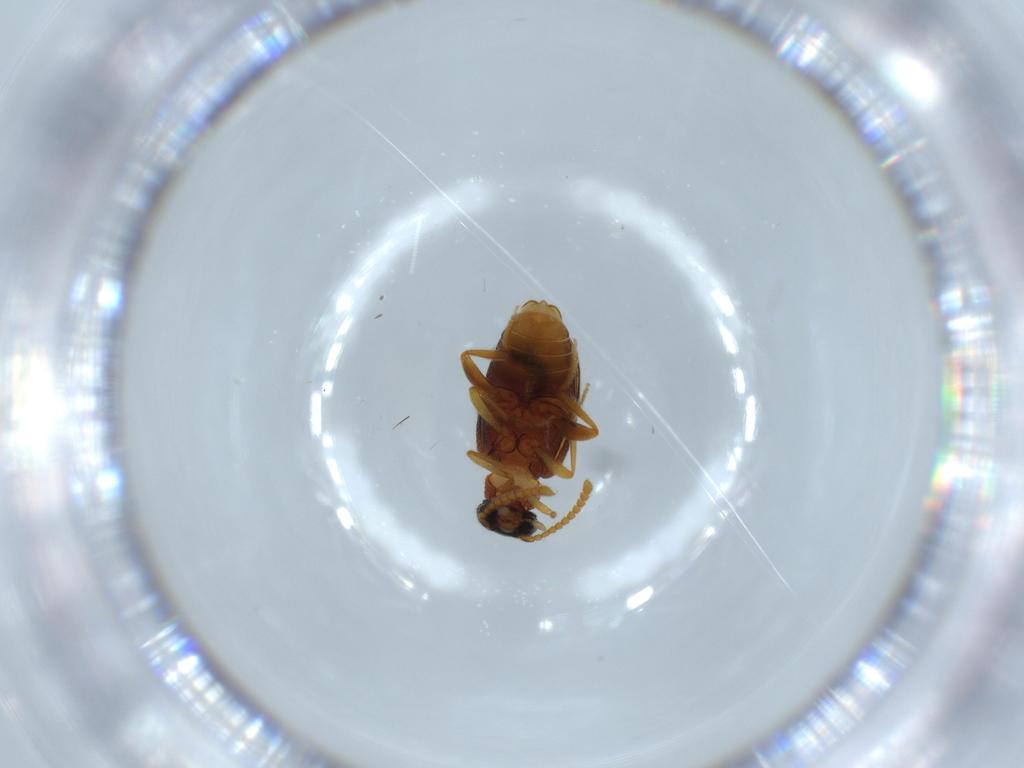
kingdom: Animalia
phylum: Arthropoda
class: Insecta
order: Coleoptera
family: Aderidae
